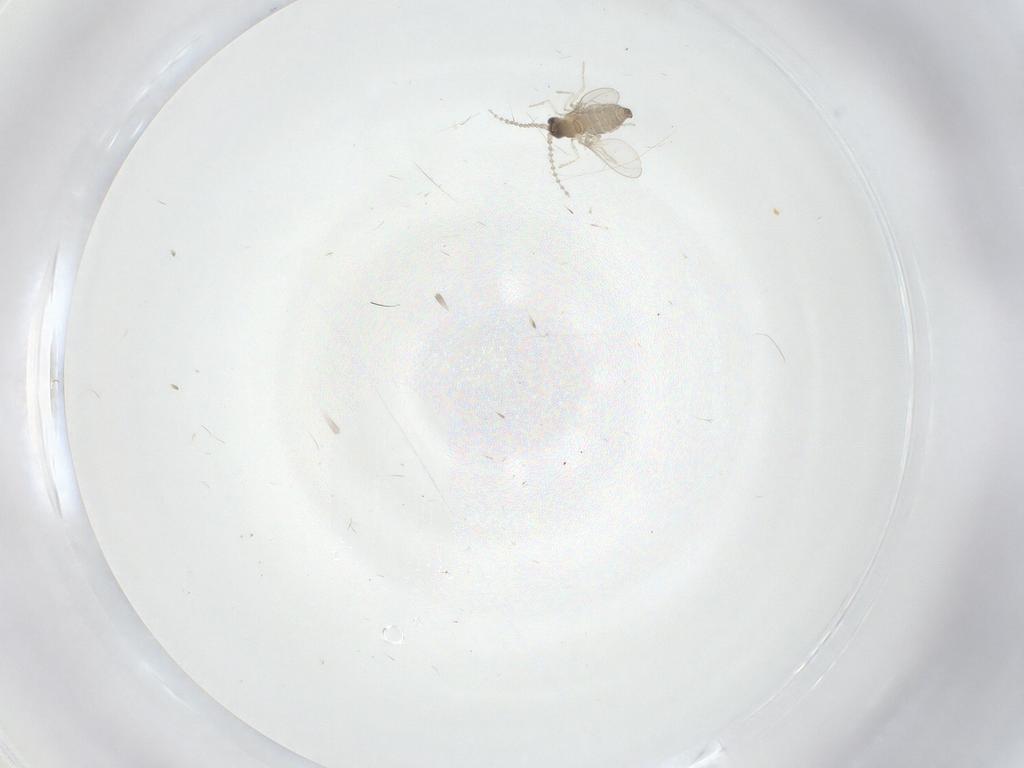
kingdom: Animalia
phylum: Arthropoda
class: Insecta
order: Diptera
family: Cecidomyiidae
